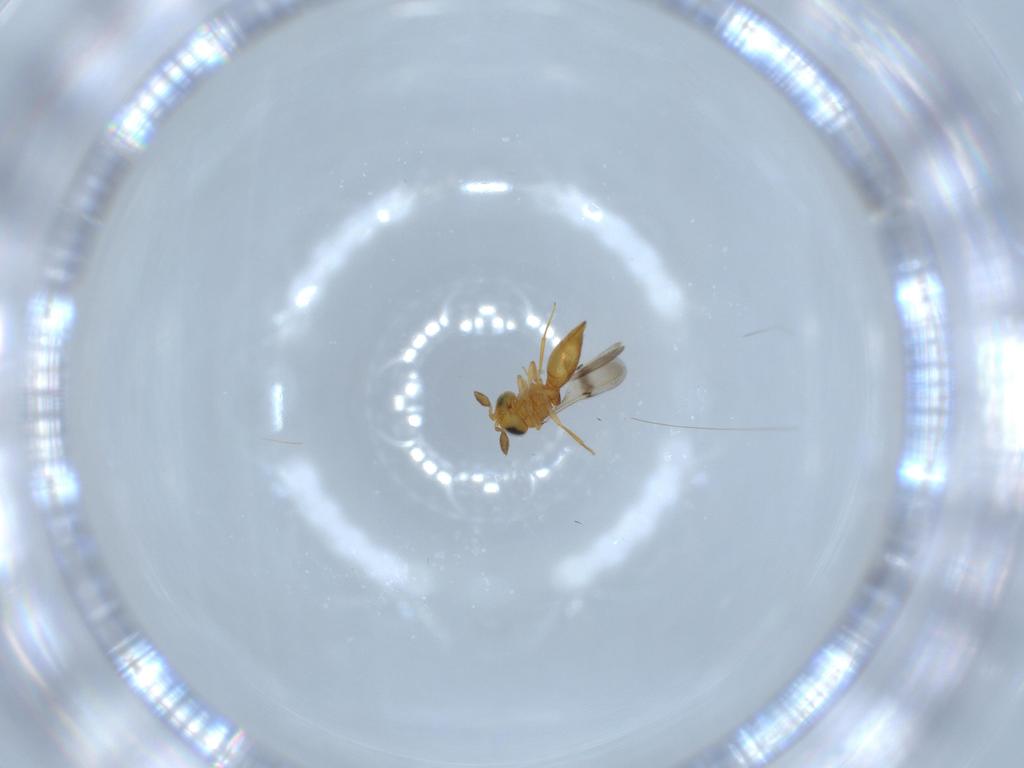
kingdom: Animalia
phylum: Arthropoda
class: Insecta
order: Hymenoptera
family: Scelionidae
